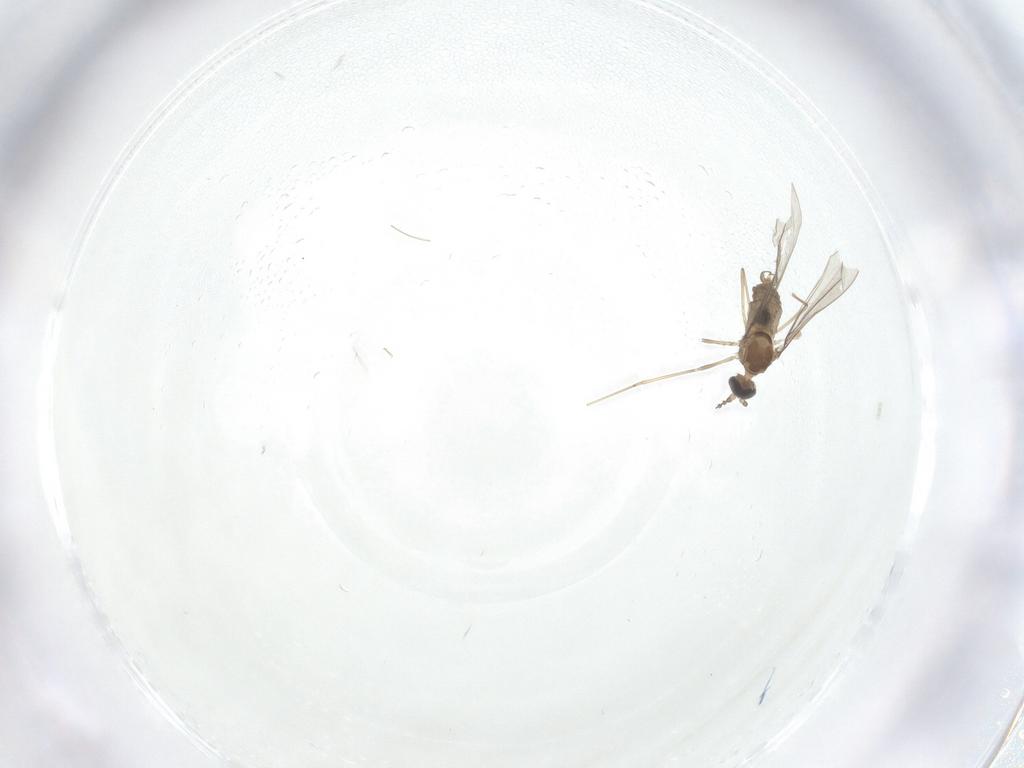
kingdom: Animalia
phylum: Arthropoda
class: Insecta
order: Diptera
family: Cecidomyiidae
